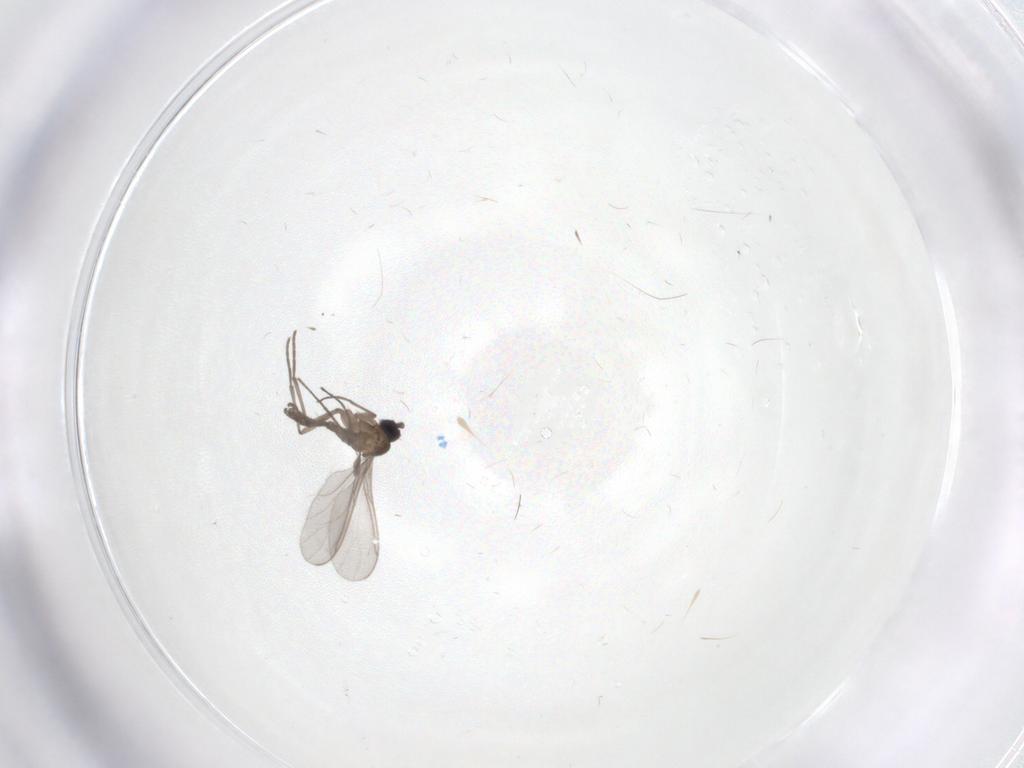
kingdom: Animalia
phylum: Arthropoda
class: Insecta
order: Diptera
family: Sciaridae
